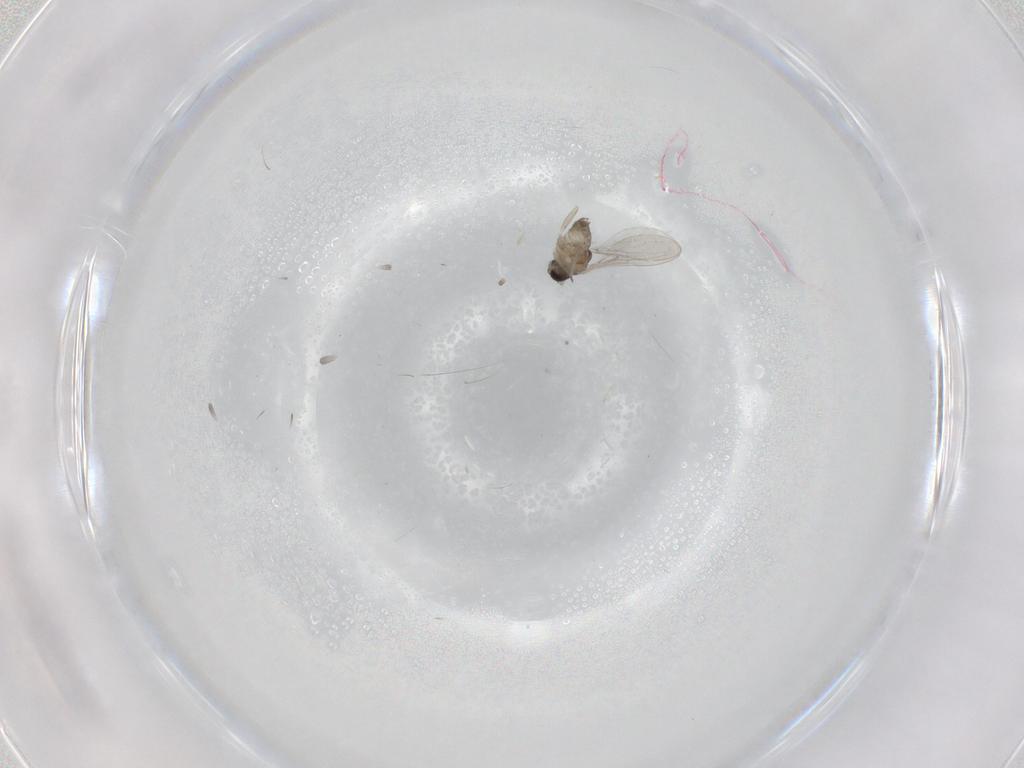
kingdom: Animalia
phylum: Arthropoda
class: Insecta
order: Diptera
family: Cecidomyiidae
